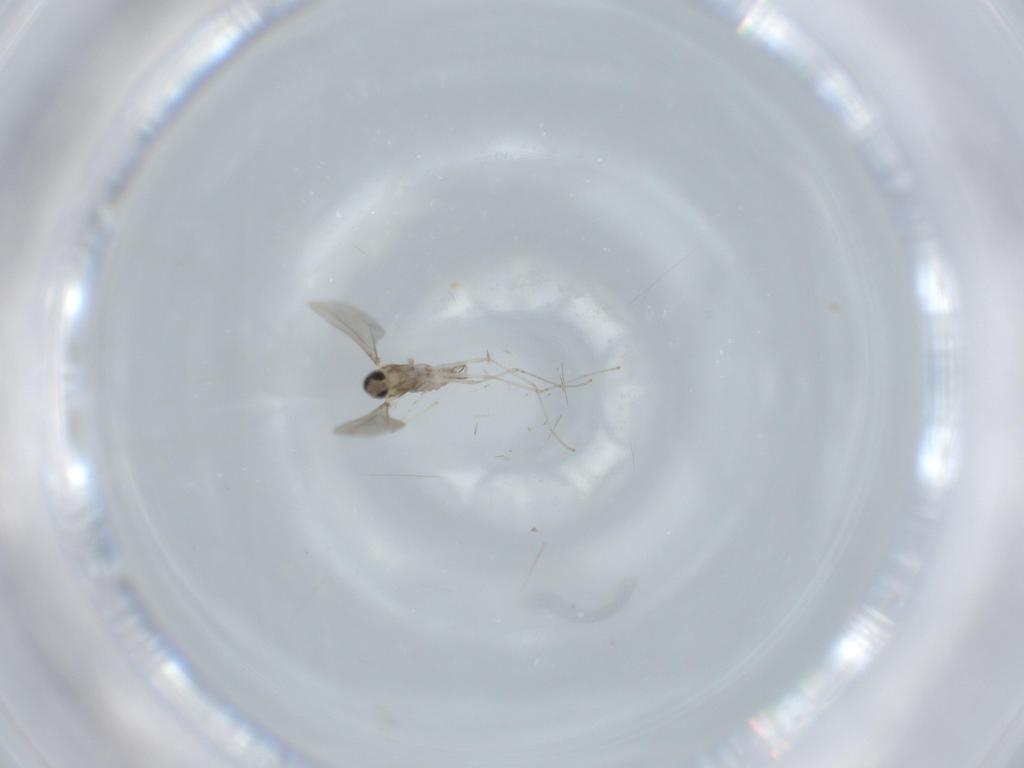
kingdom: Animalia
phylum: Arthropoda
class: Insecta
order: Diptera
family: Cecidomyiidae
